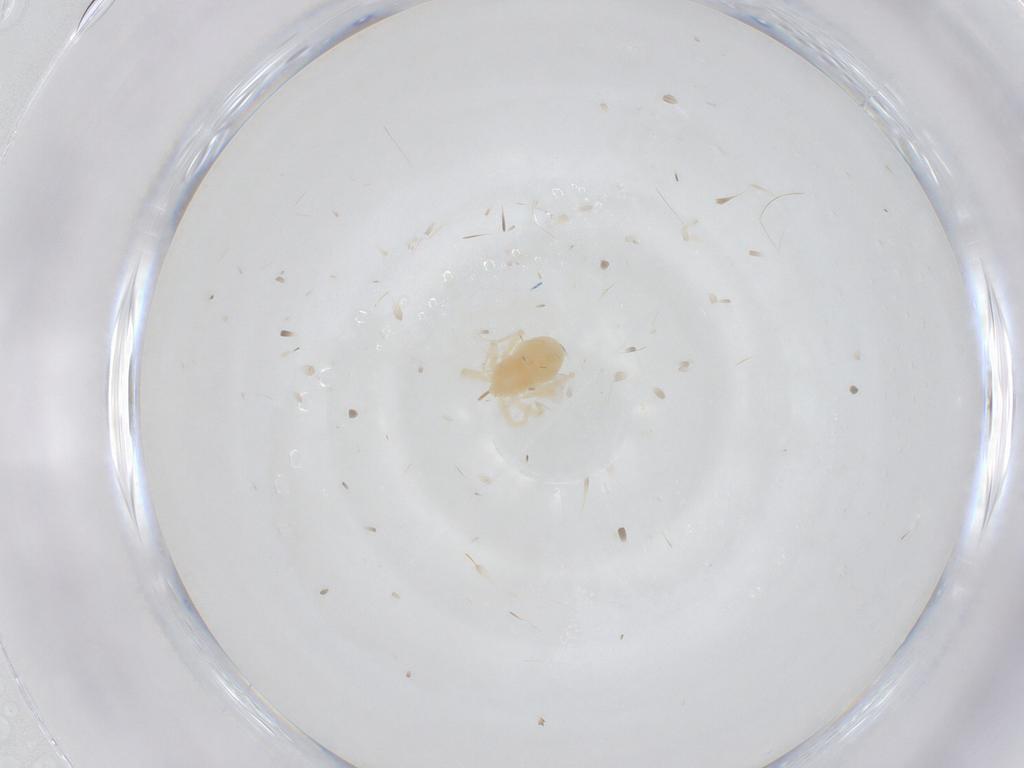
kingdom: Animalia
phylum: Arthropoda
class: Arachnida
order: Trombidiformes
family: Anystidae
